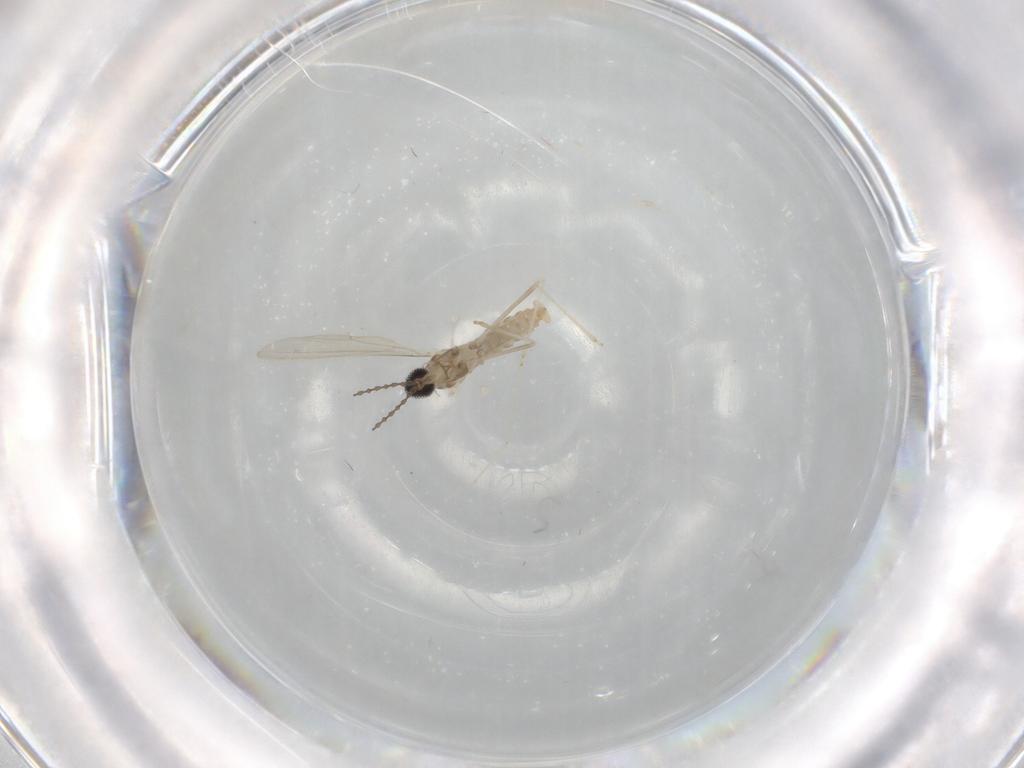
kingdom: Animalia
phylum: Arthropoda
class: Insecta
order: Diptera
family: Cecidomyiidae
